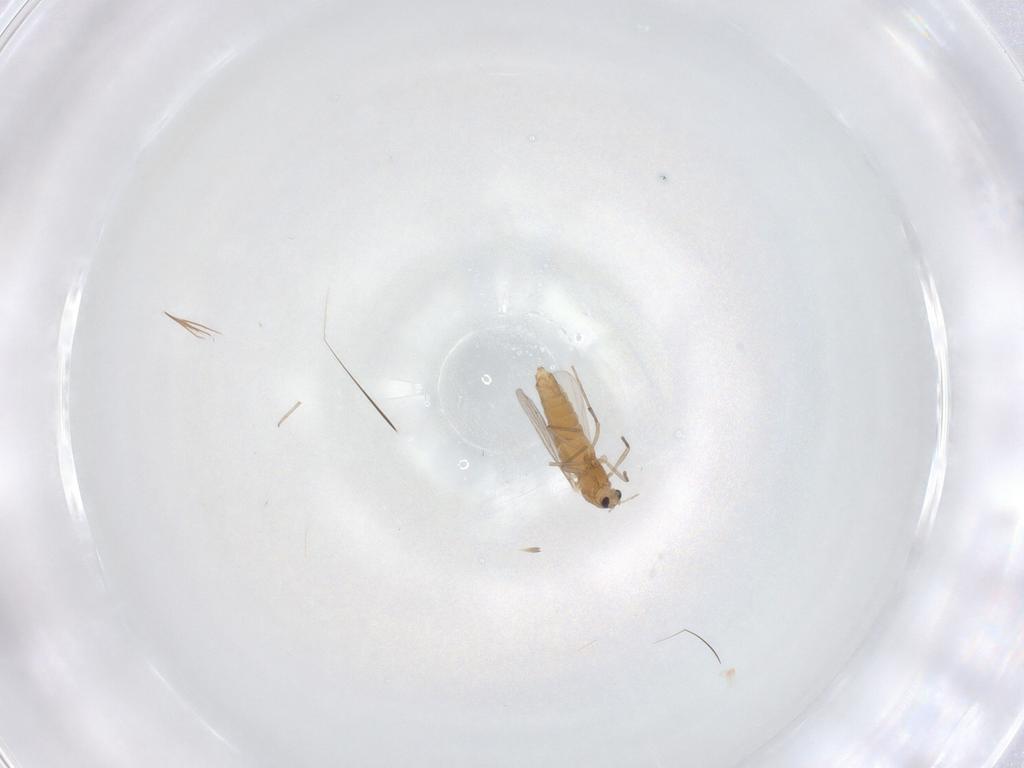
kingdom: Animalia
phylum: Arthropoda
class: Insecta
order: Diptera
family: Chironomidae
